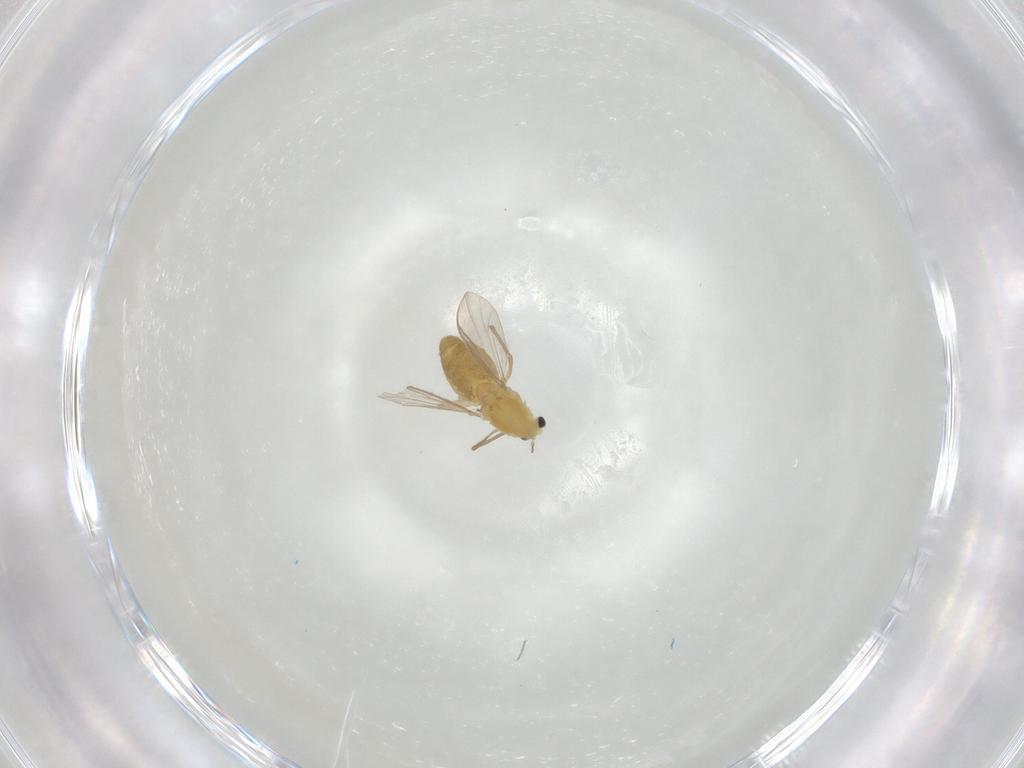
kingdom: Animalia
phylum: Arthropoda
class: Insecta
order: Diptera
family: Chironomidae
